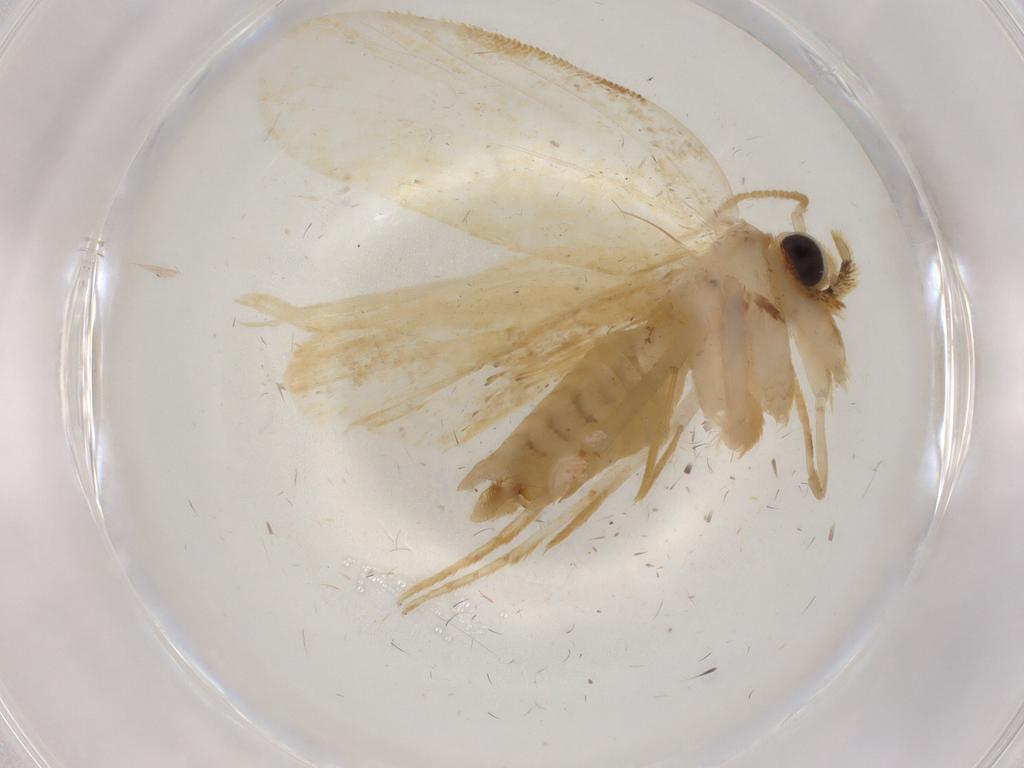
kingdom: Animalia
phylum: Arthropoda
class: Insecta
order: Lepidoptera
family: Psychidae
